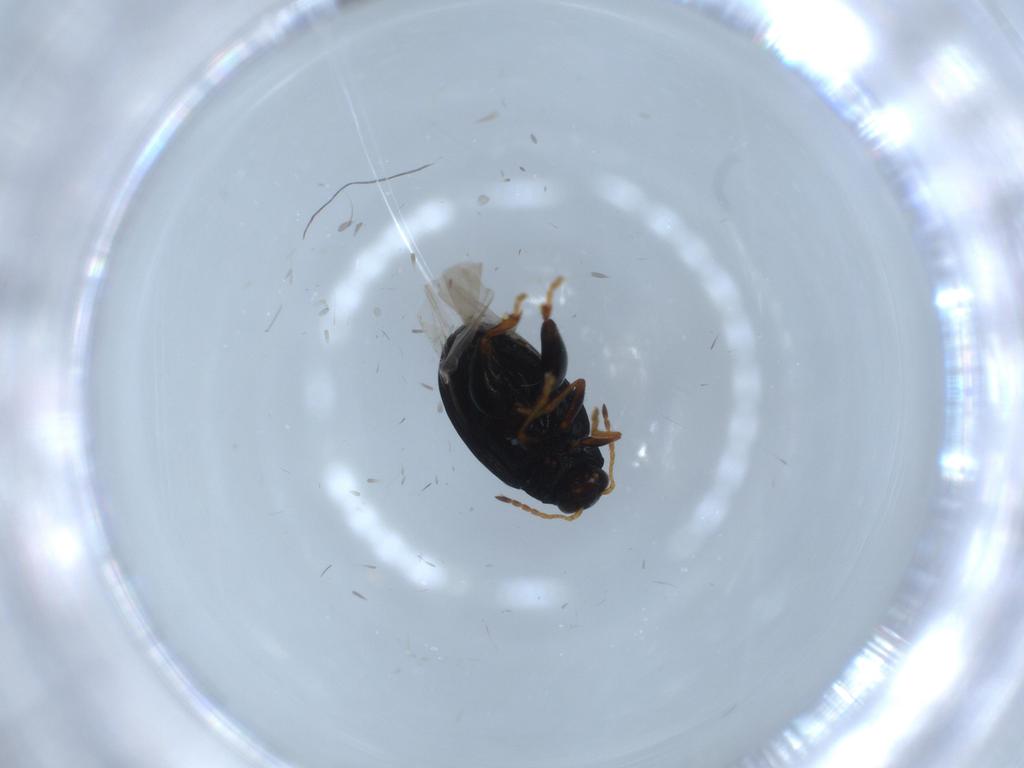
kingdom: Animalia
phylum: Arthropoda
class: Insecta
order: Coleoptera
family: Chrysomelidae
